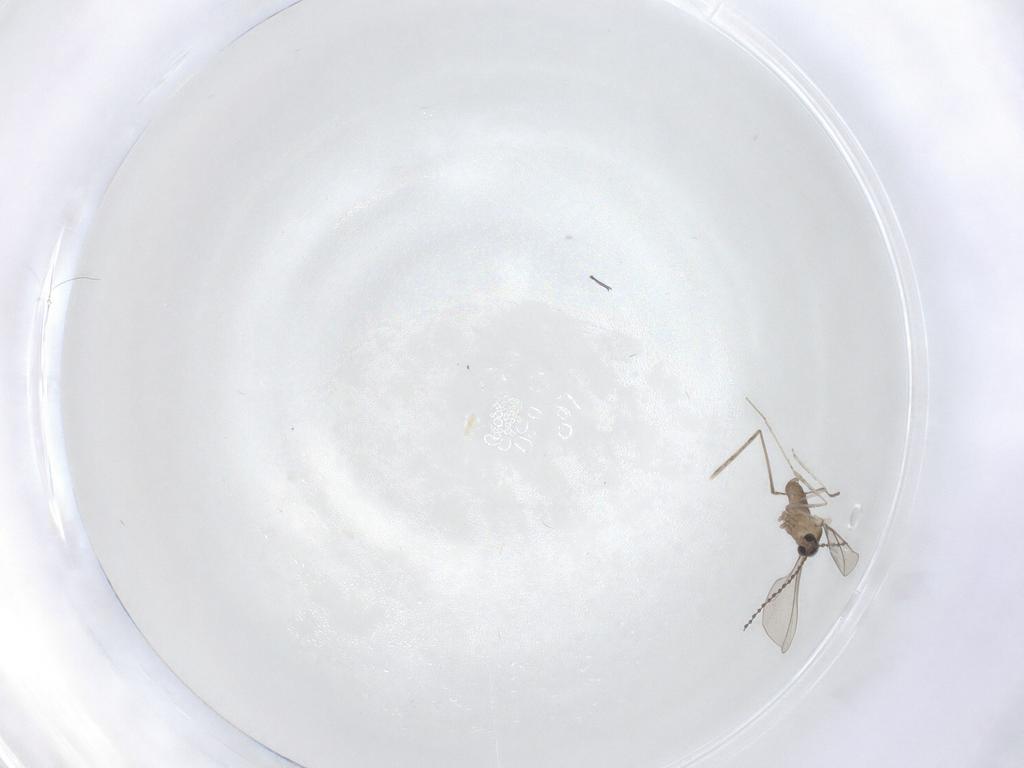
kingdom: Animalia
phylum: Arthropoda
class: Insecta
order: Diptera
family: Cecidomyiidae
